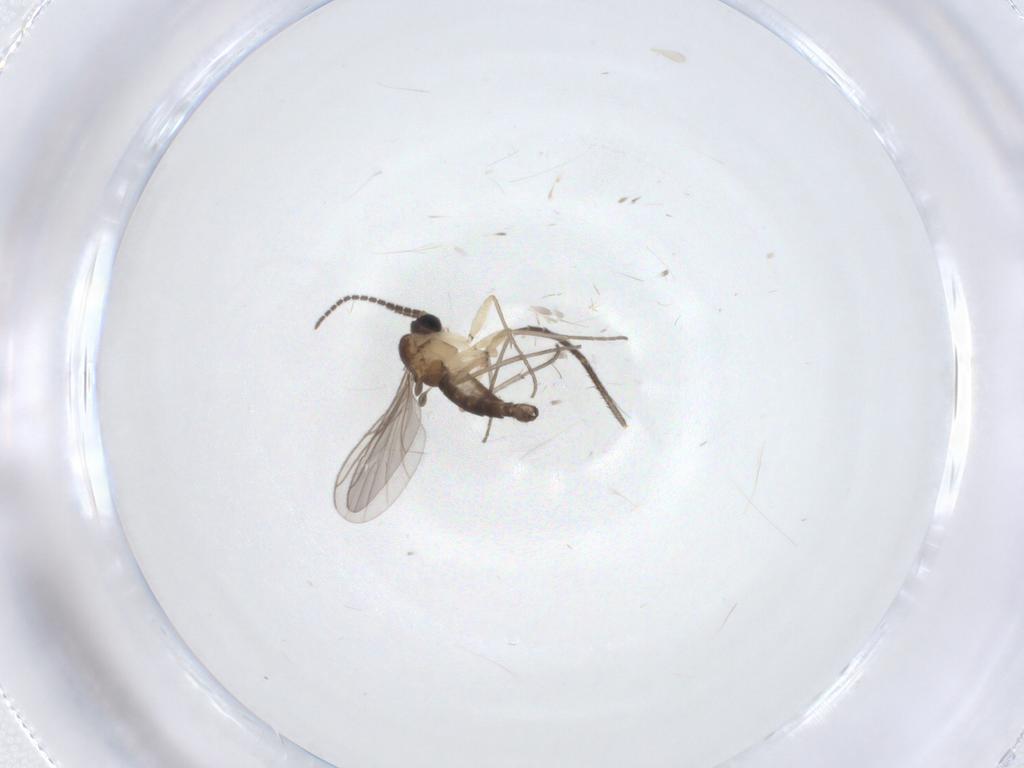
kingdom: Animalia
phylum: Arthropoda
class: Insecta
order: Diptera
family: Sciaridae
